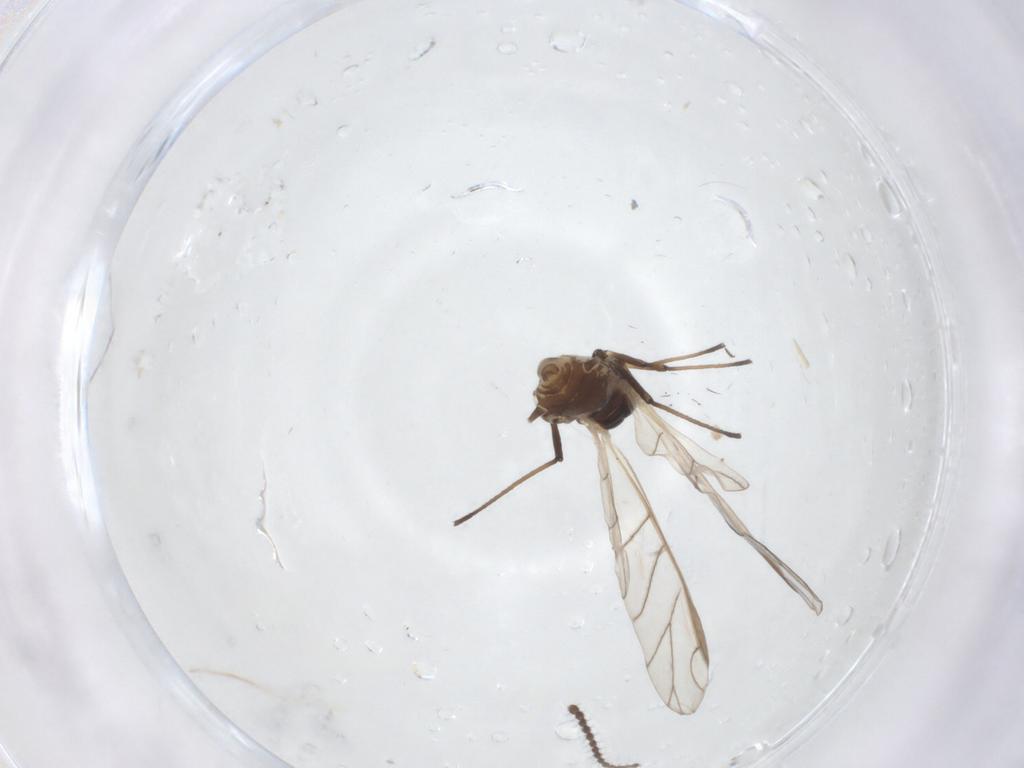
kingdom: Animalia
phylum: Arthropoda
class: Insecta
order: Hemiptera
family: Aphididae
